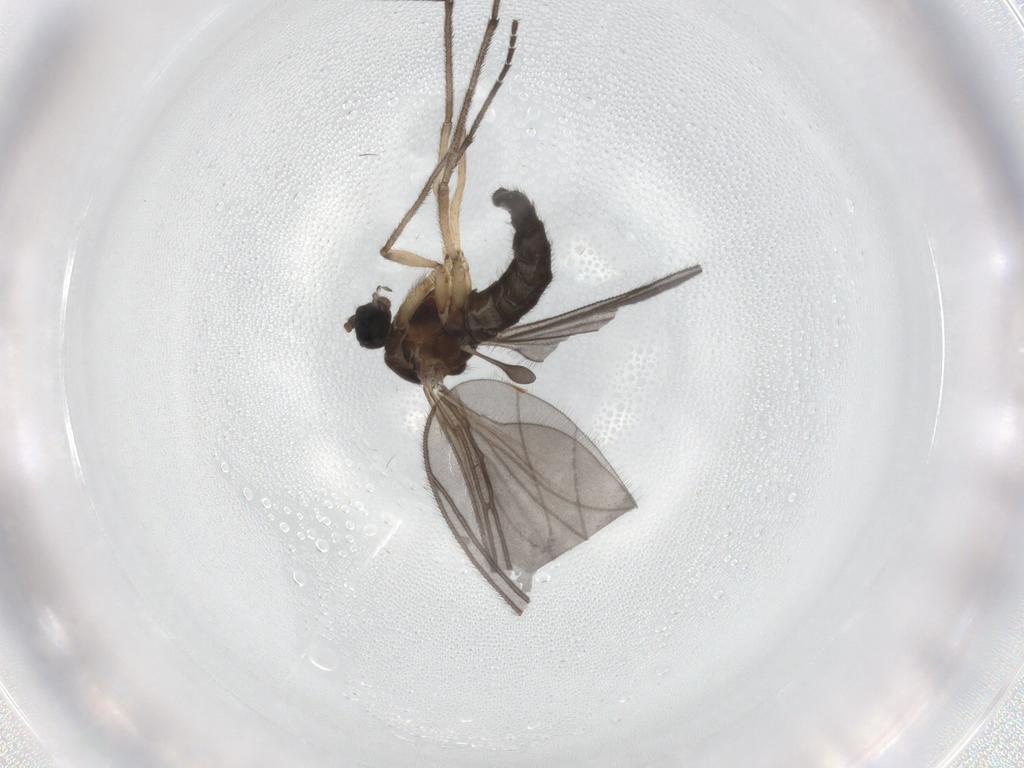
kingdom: Animalia
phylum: Arthropoda
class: Insecta
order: Diptera
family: Sciaridae
